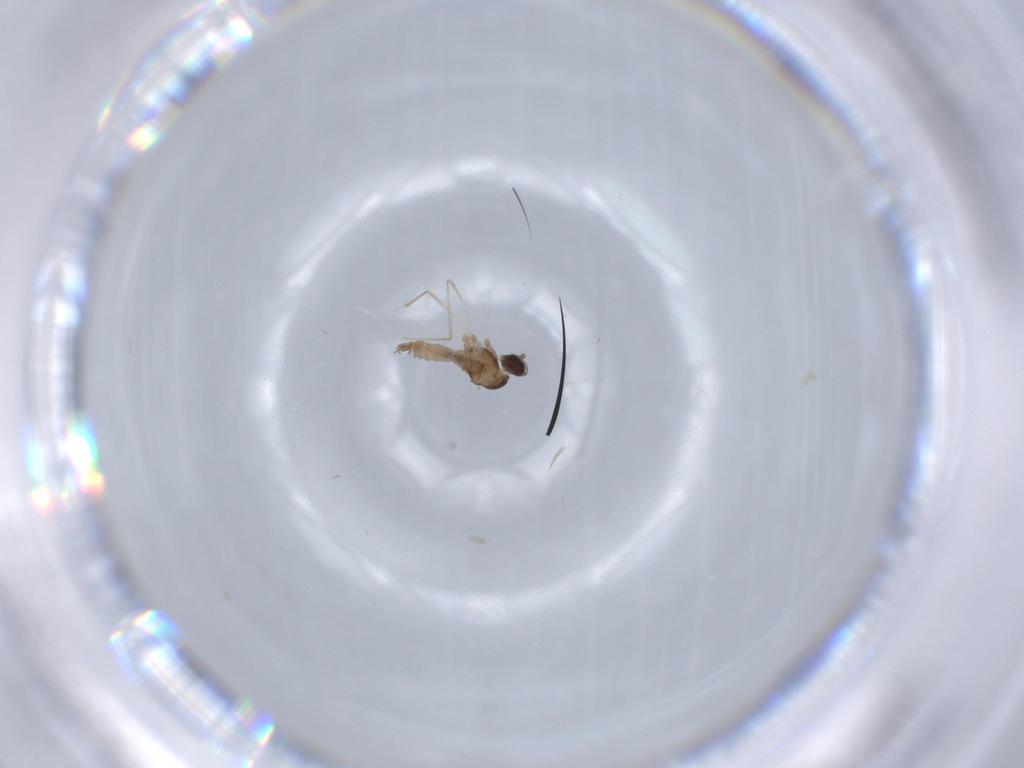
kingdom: Animalia
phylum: Arthropoda
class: Insecta
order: Diptera
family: Cecidomyiidae
